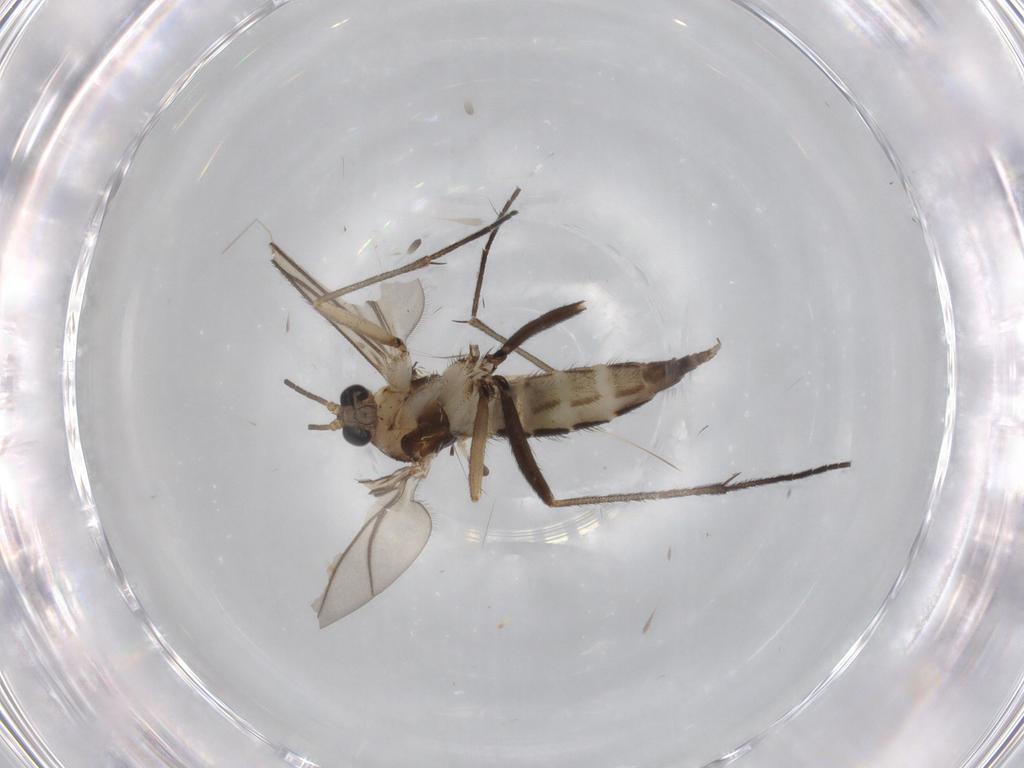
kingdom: Animalia
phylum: Arthropoda
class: Insecta
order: Diptera
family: Sciaridae
